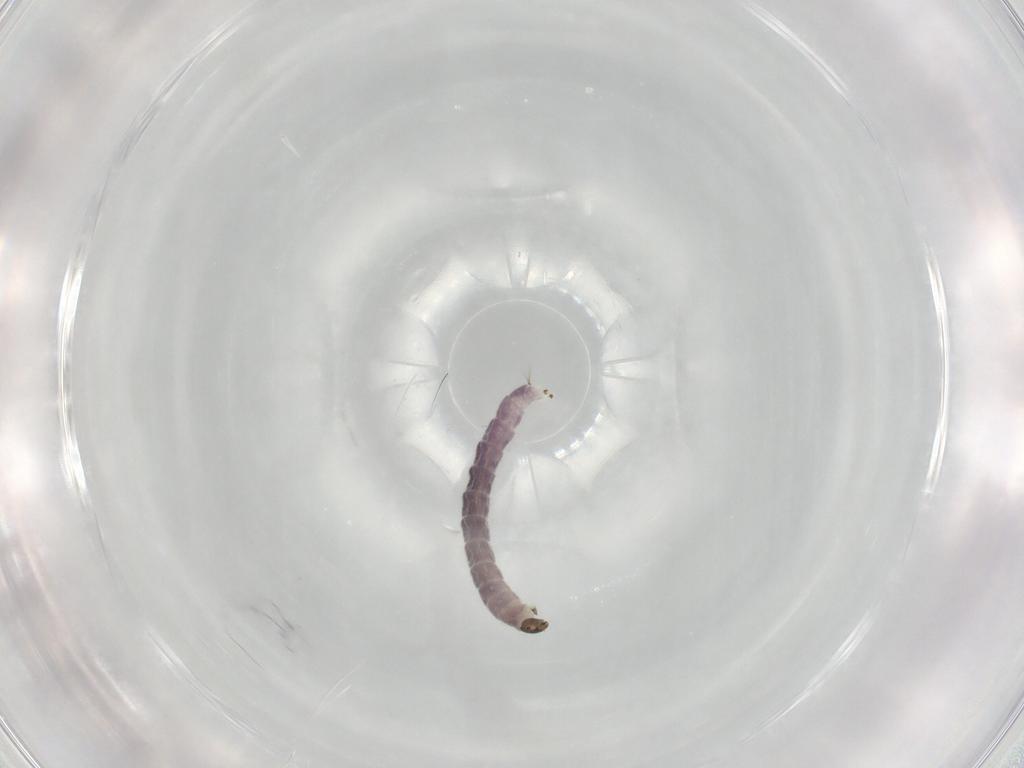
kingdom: Animalia
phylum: Arthropoda
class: Insecta
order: Diptera
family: Chironomidae
